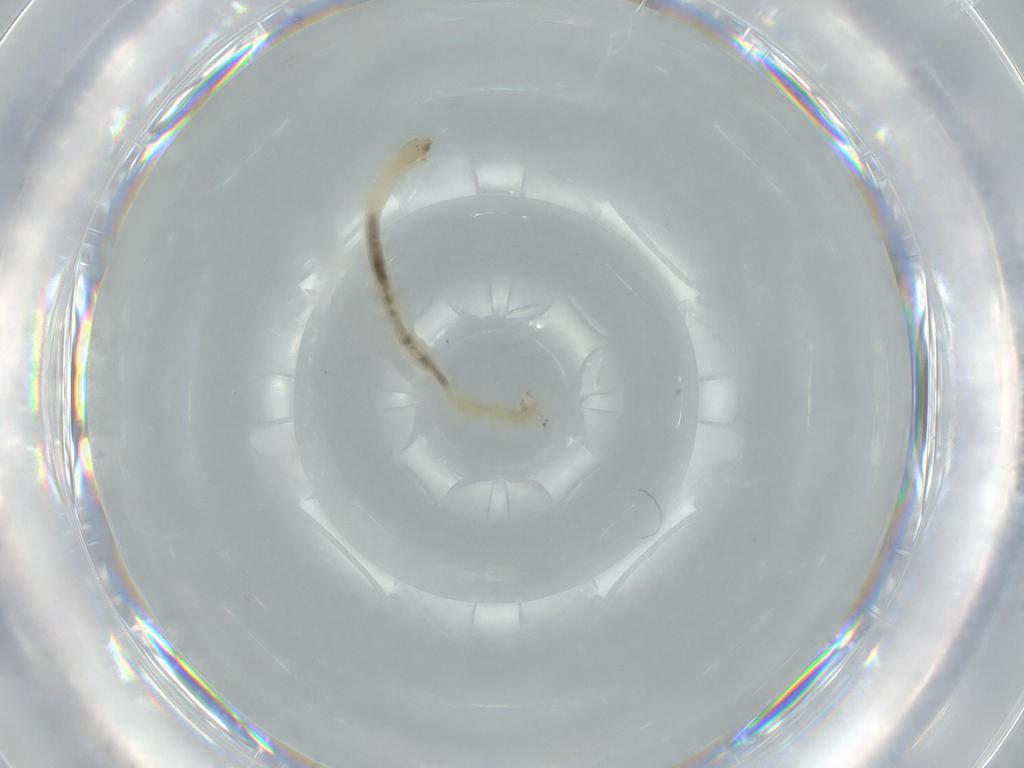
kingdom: Animalia
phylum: Arthropoda
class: Insecta
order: Diptera
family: Chironomidae
